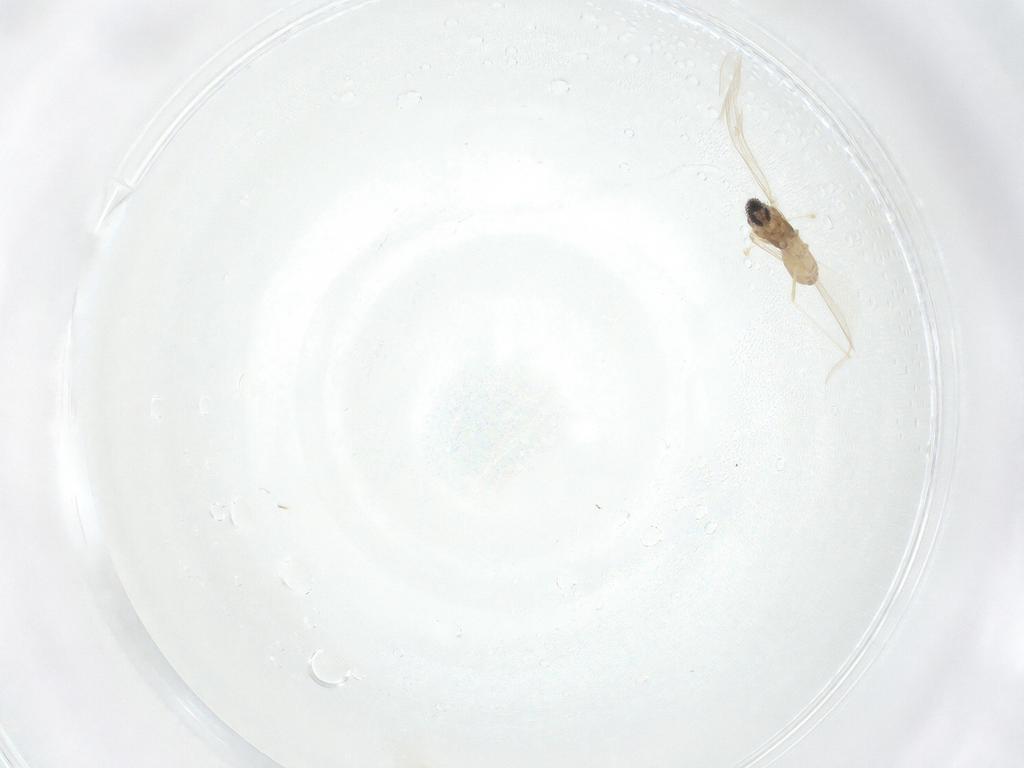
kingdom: Animalia
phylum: Arthropoda
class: Insecta
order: Diptera
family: Cecidomyiidae
